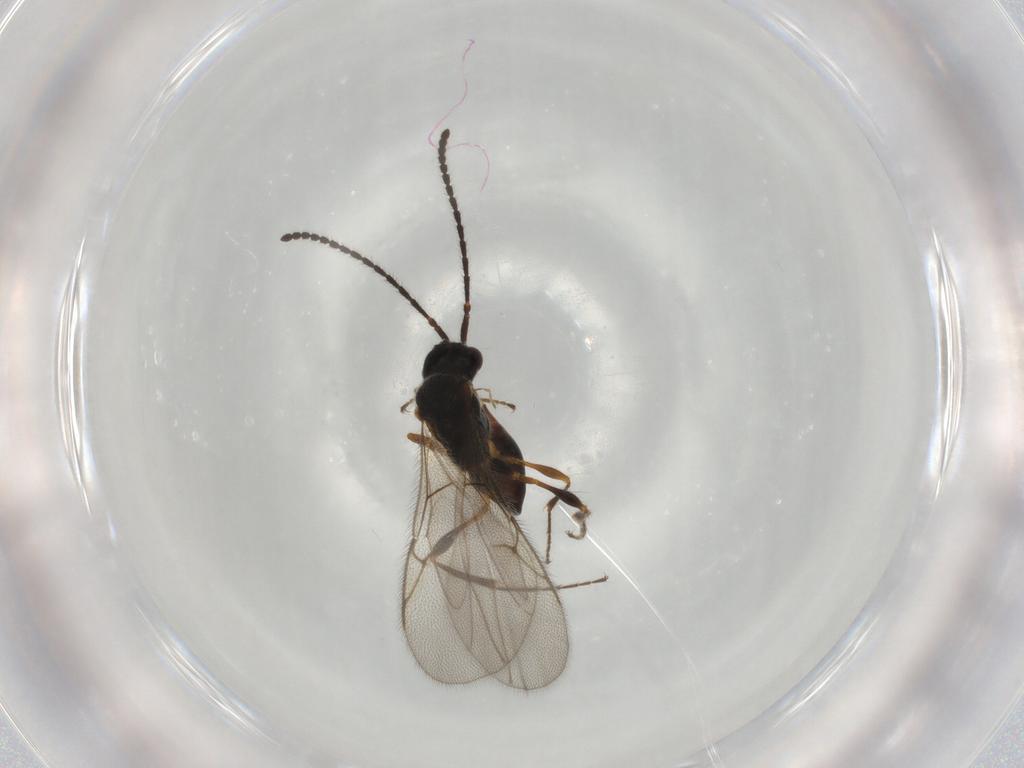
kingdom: Animalia
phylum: Arthropoda
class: Insecta
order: Hymenoptera
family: Diapriidae
